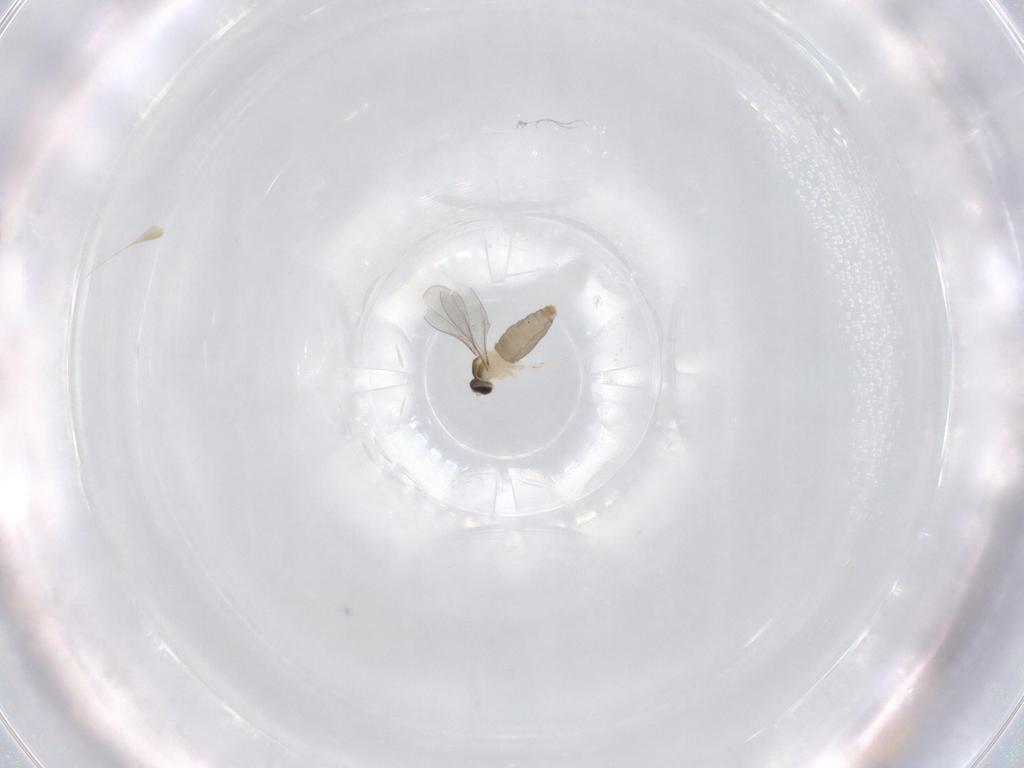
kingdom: Animalia
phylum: Arthropoda
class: Insecta
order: Diptera
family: Cecidomyiidae
